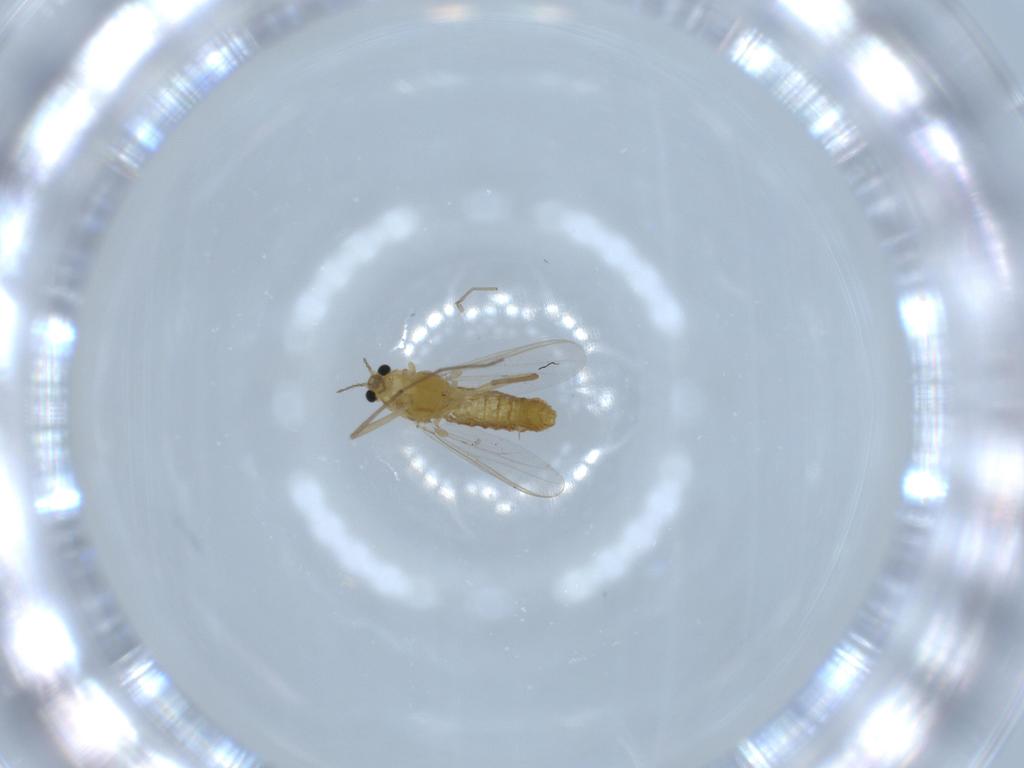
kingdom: Animalia
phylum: Arthropoda
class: Insecta
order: Diptera
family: Chironomidae
